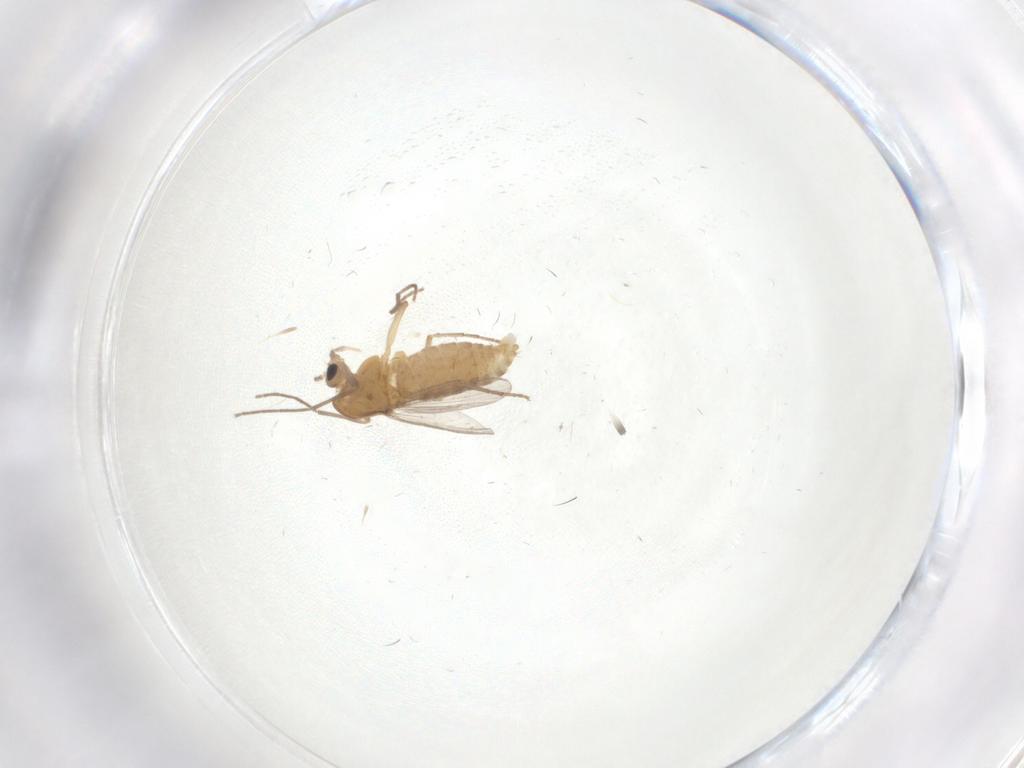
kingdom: Animalia
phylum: Arthropoda
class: Insecta
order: Diptera
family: Chironomidae
